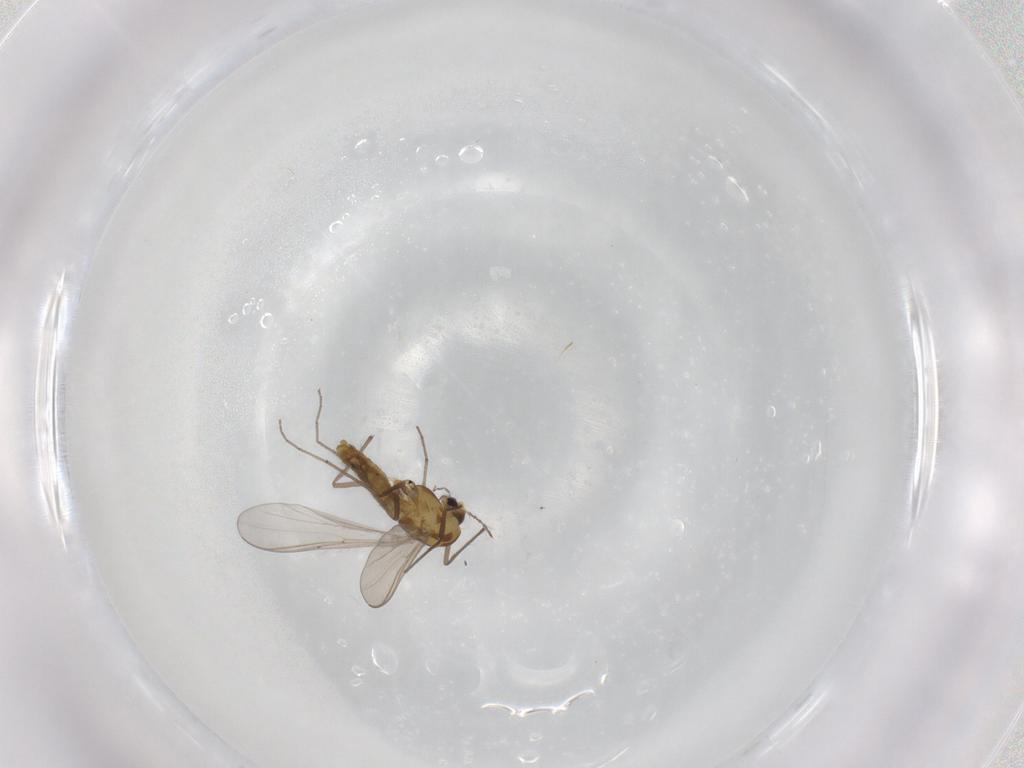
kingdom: Animalia
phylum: Arthropoda
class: Insecta
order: Diptera
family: Chironomidae
